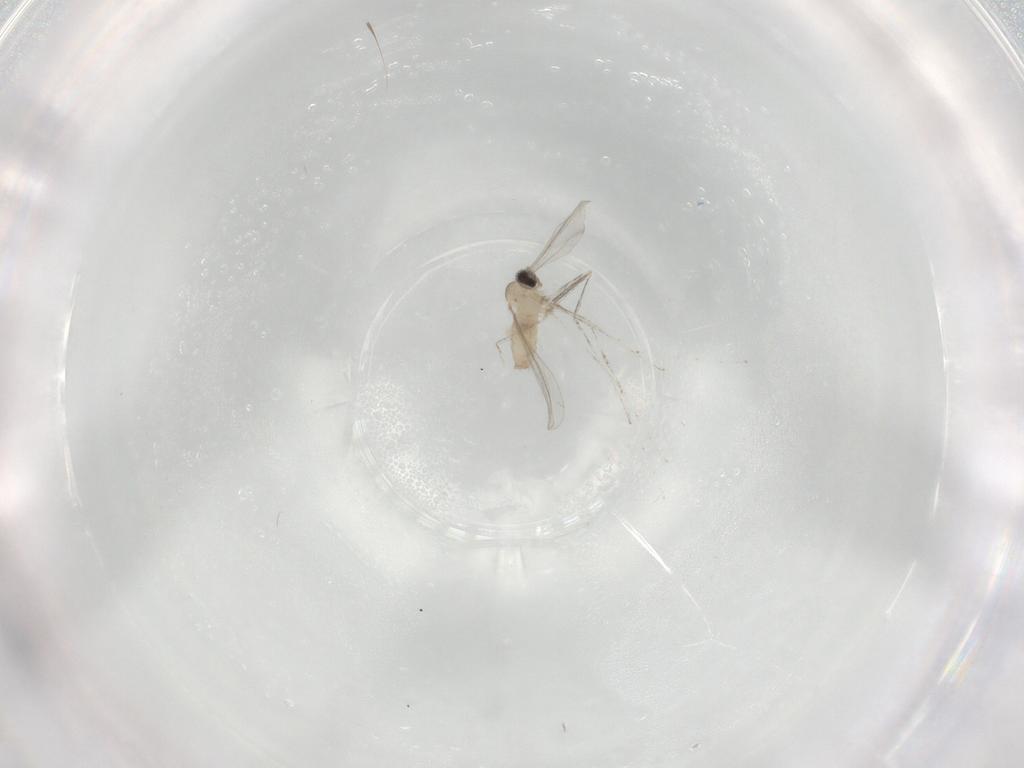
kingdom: Animalia
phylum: Arthropoda
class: Insecta
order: Diptera
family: Cecidomyiidae
